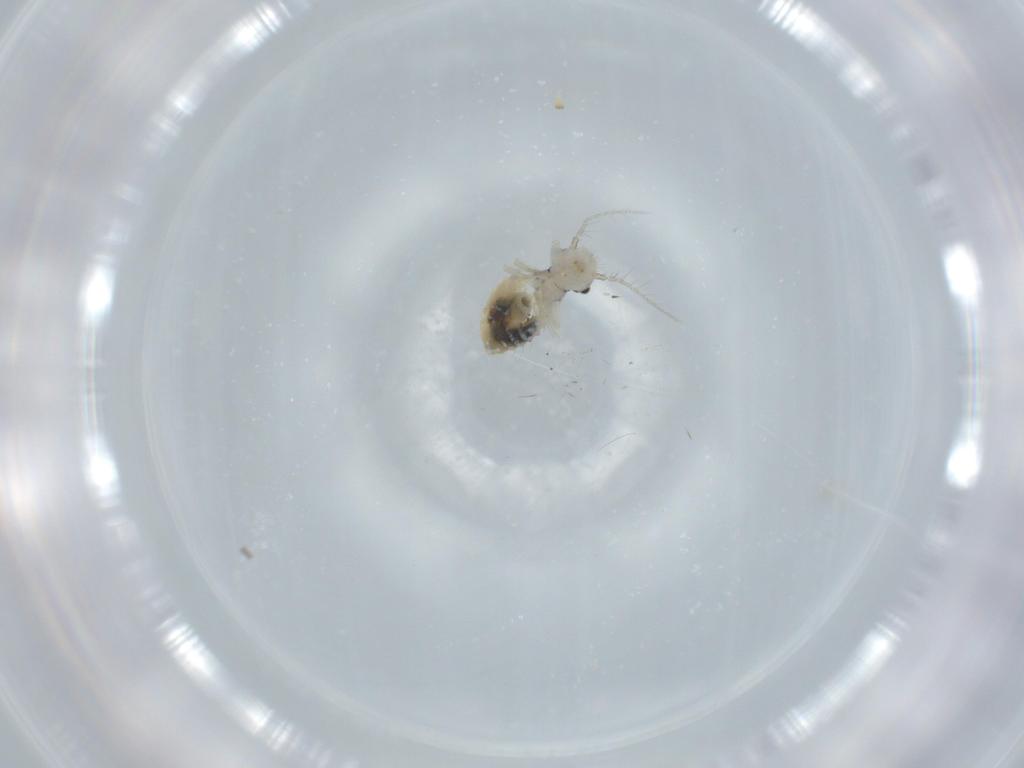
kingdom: Animalia
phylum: Arthropoda
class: Insecta
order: Psocodea
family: Pseudocaeciliidae
